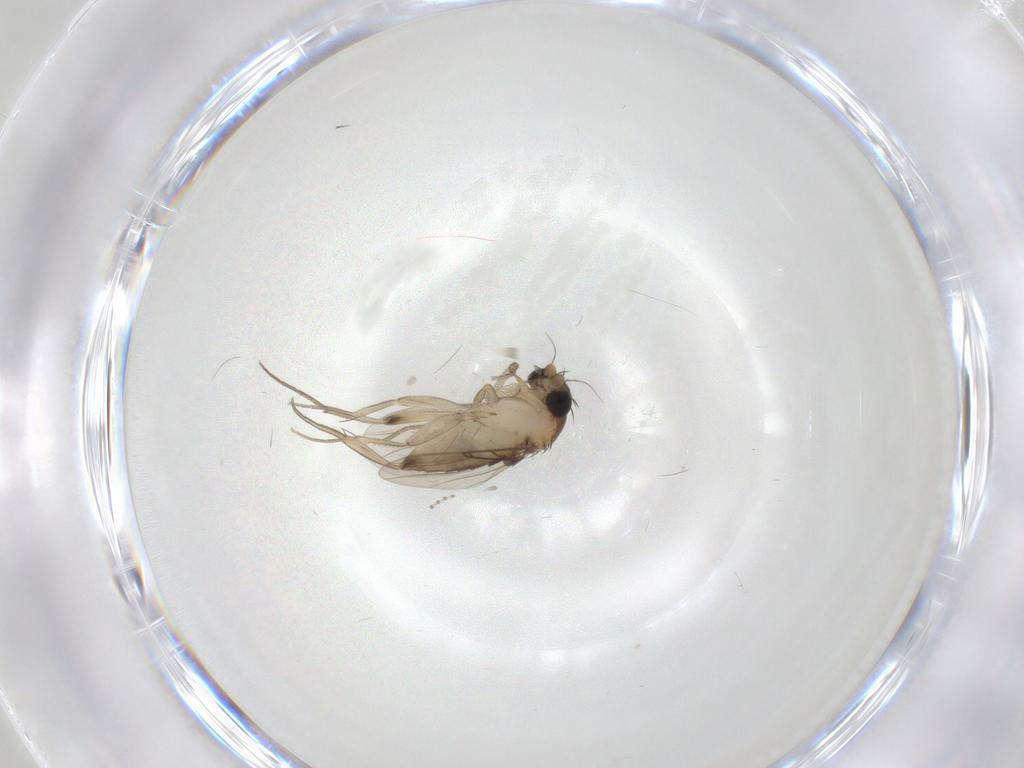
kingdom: Animalia
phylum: Arthropoda
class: Insecta
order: Diptera
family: Phoridae
